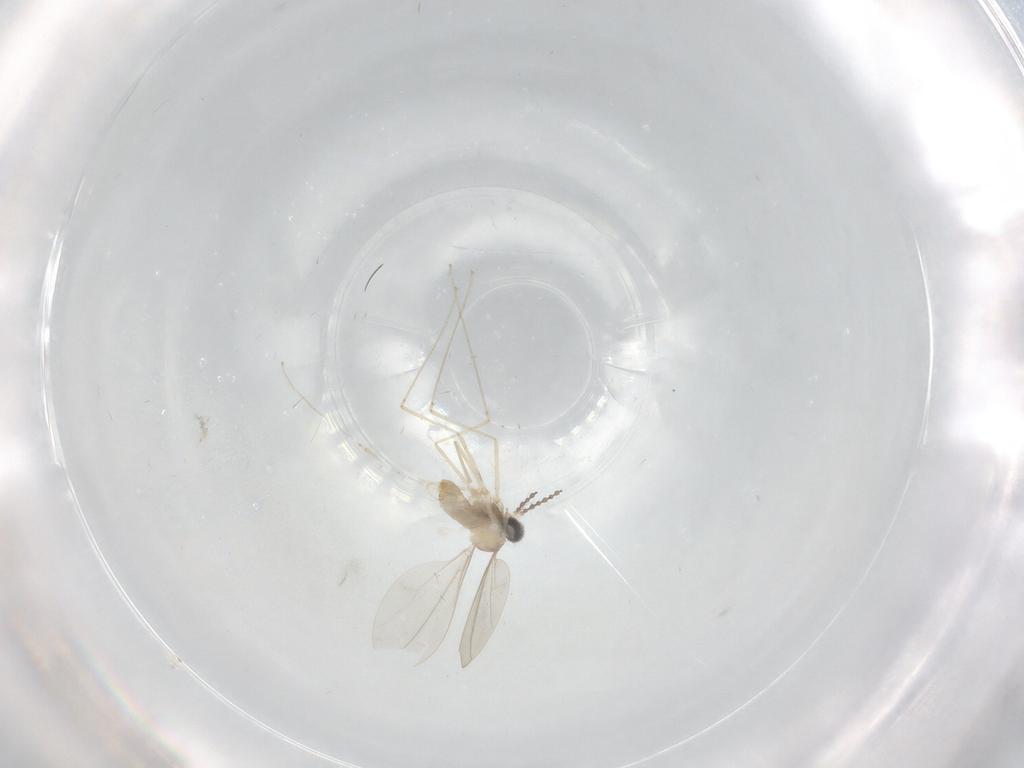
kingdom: Animalia
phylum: Arthropoda
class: Insecta
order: Diptera
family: Cecidomyiidae
